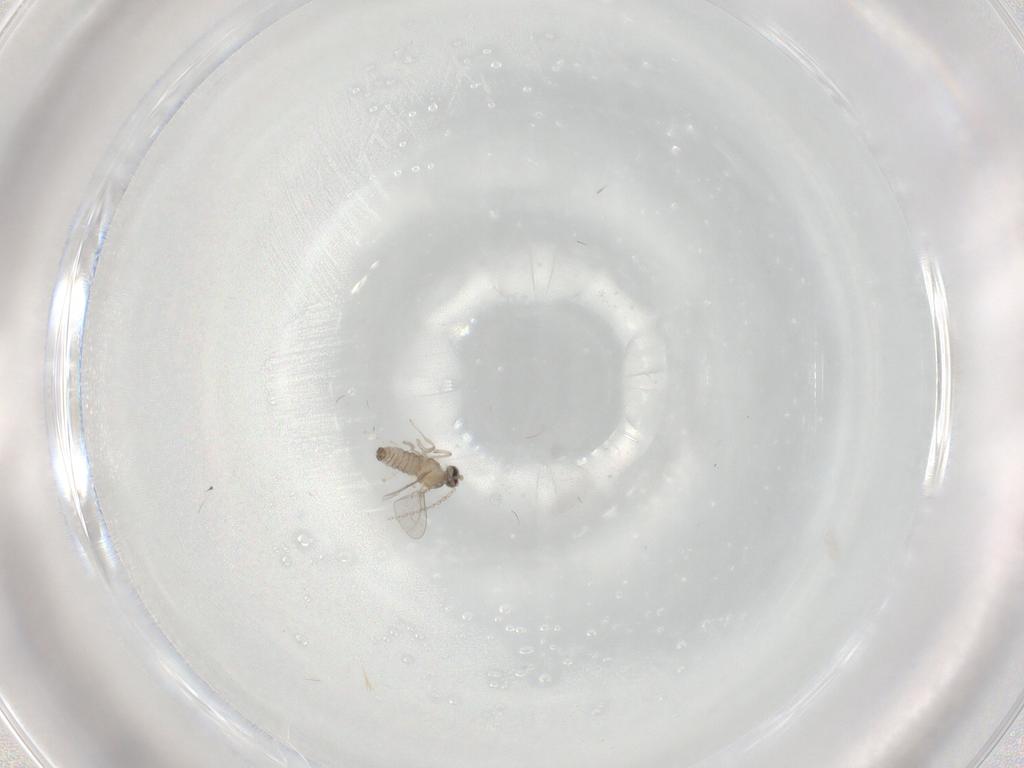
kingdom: Animalia
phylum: Arthropoda
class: Insecta
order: Diptera
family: Cecidomyiidae
